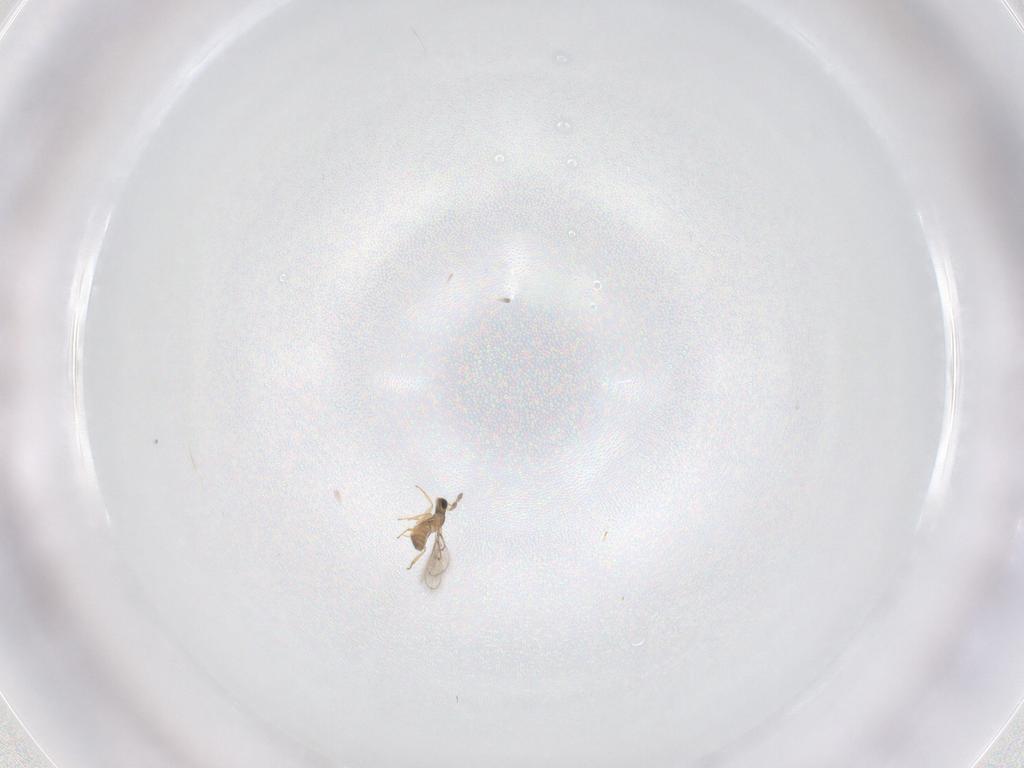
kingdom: Animalia
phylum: Arthropoda
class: Insecta
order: Hymenoptera
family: Trichogrammatidae
